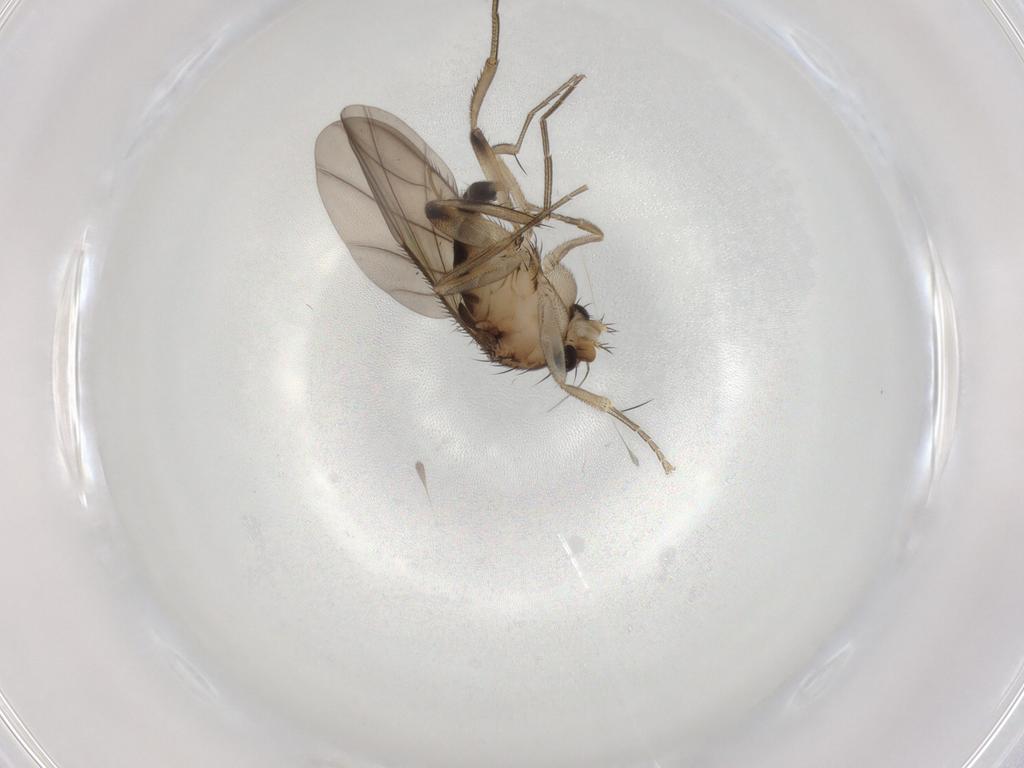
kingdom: Animalia
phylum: Arthropoda
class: Insecta
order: Diptera
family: Phoridae
